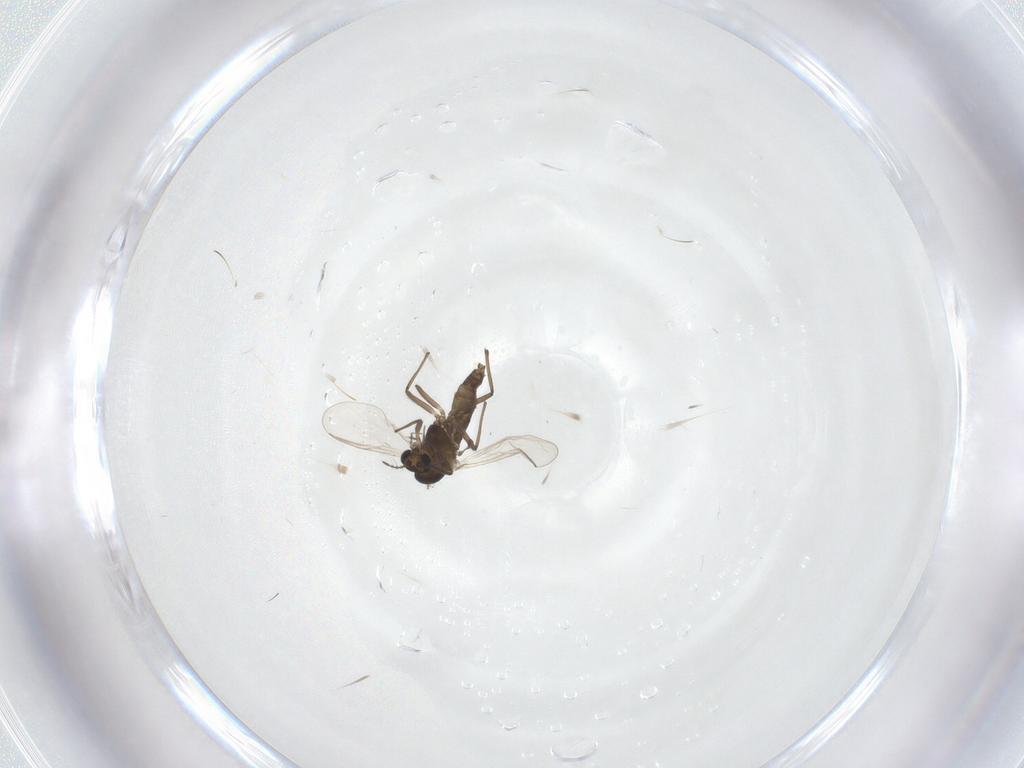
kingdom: Animalia
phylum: Arthropoda
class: Insecta
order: Diptera
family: Chironomidae
